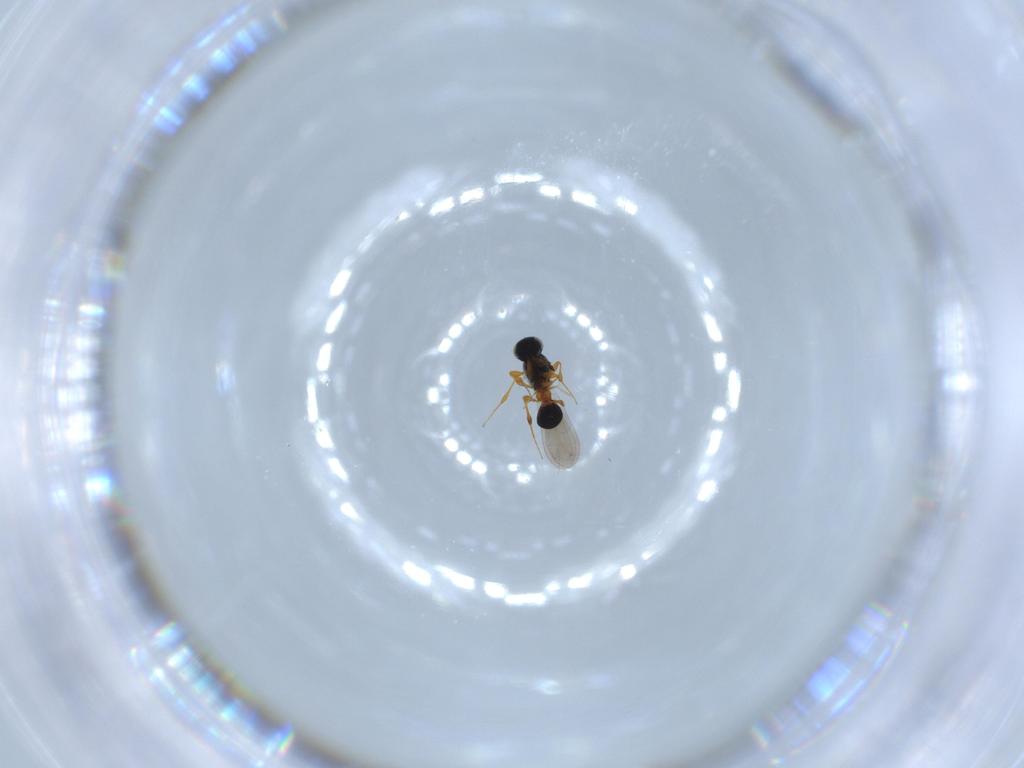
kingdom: Animalia
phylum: Arthropoda
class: Insecta
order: Hymenoptera
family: Platygastridae
